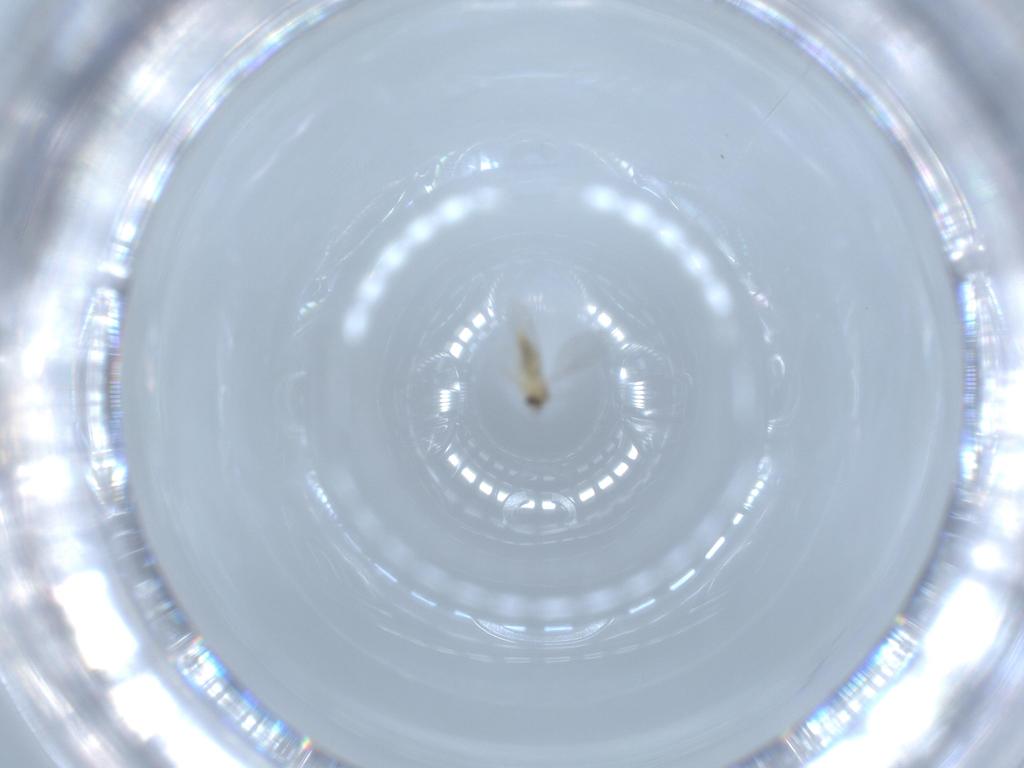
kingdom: Animalia
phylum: Arthropoda
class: Insecta
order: Diptera
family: Cecidomyiidae
